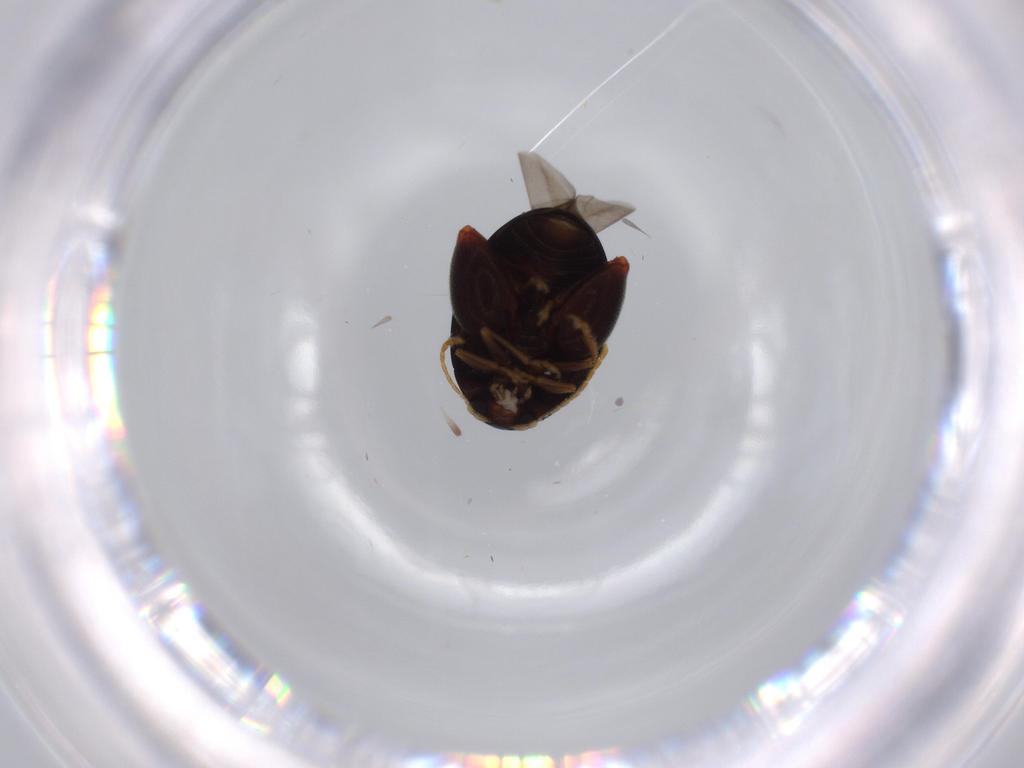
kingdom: Animalia
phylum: Arthropoda
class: Insecta
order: Coleoptera
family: Chrysomelidae
